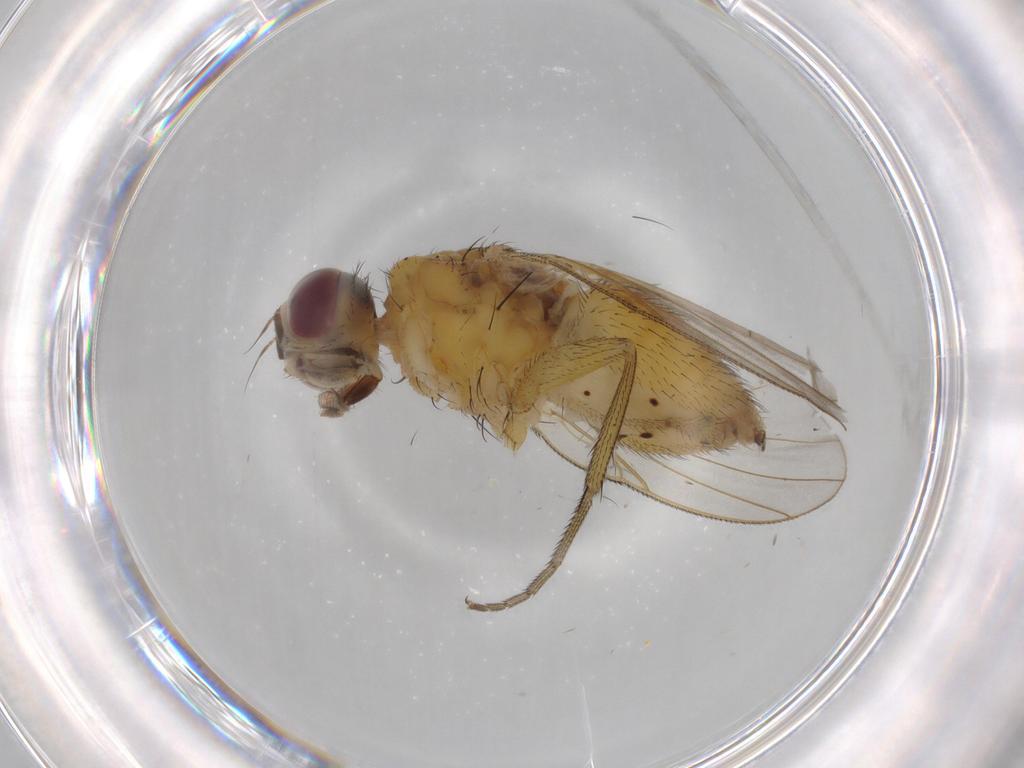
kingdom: Animalia
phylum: Arthropoda
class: Insecta
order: Diptera
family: Muscidae
